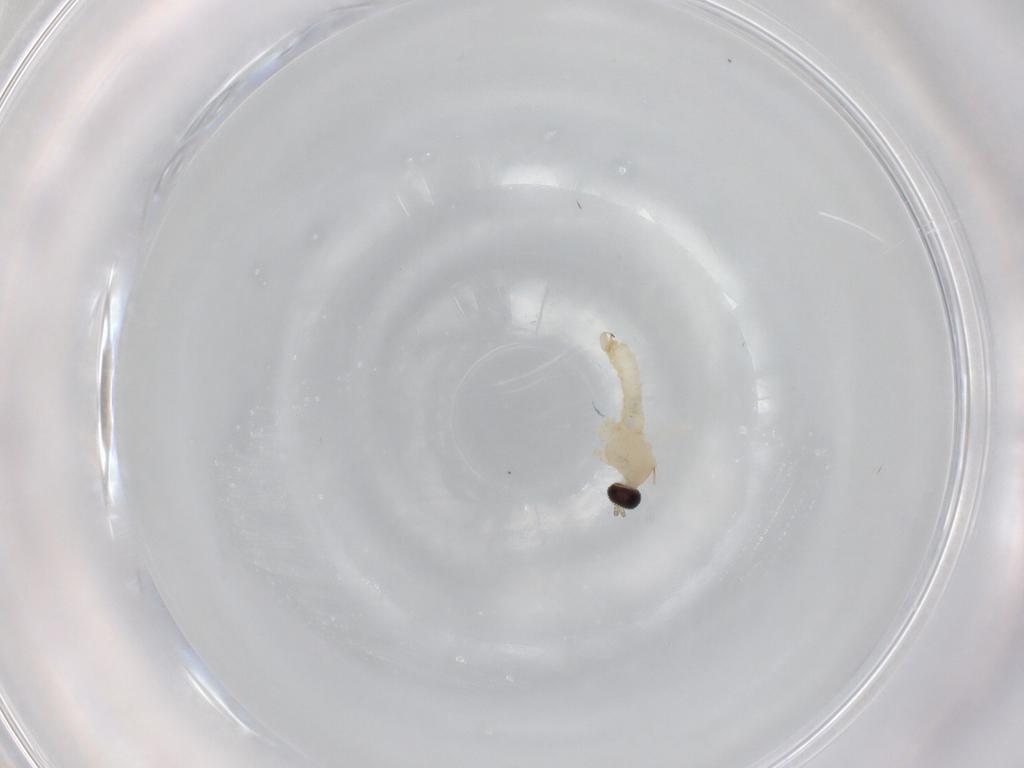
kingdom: Animalia
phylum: Arthropoda
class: Insecta
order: Diptera
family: Cecidomyiidae
